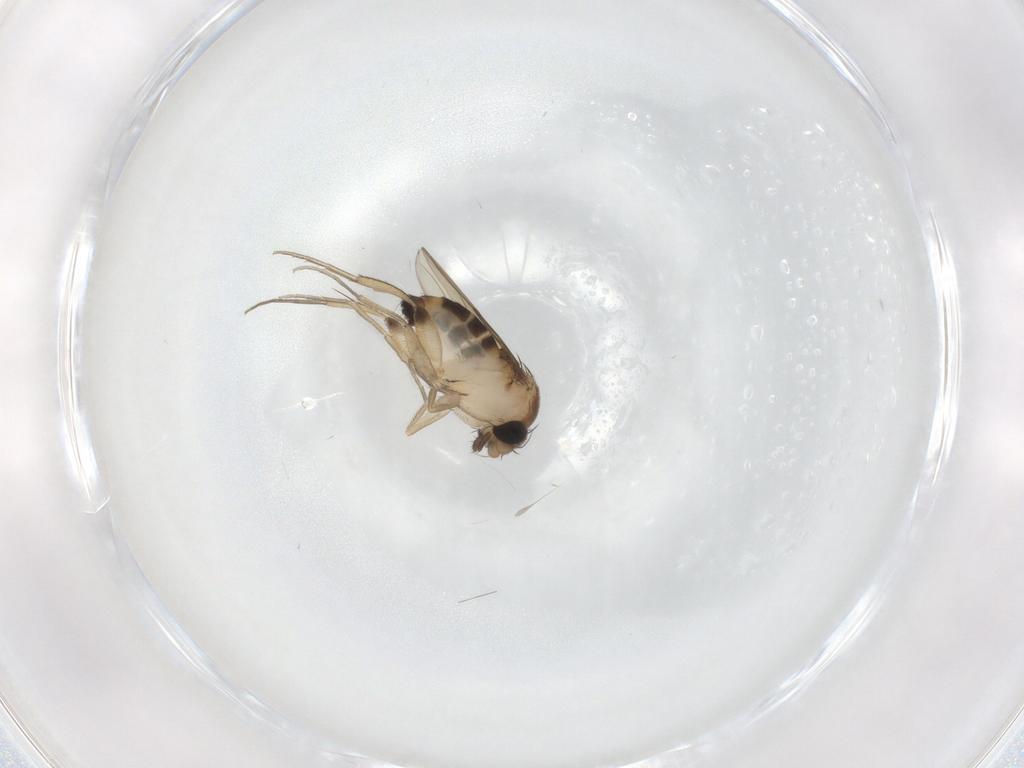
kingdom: Animalia
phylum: Arthropoda
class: Insecta
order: Diptera
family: Phoridae
